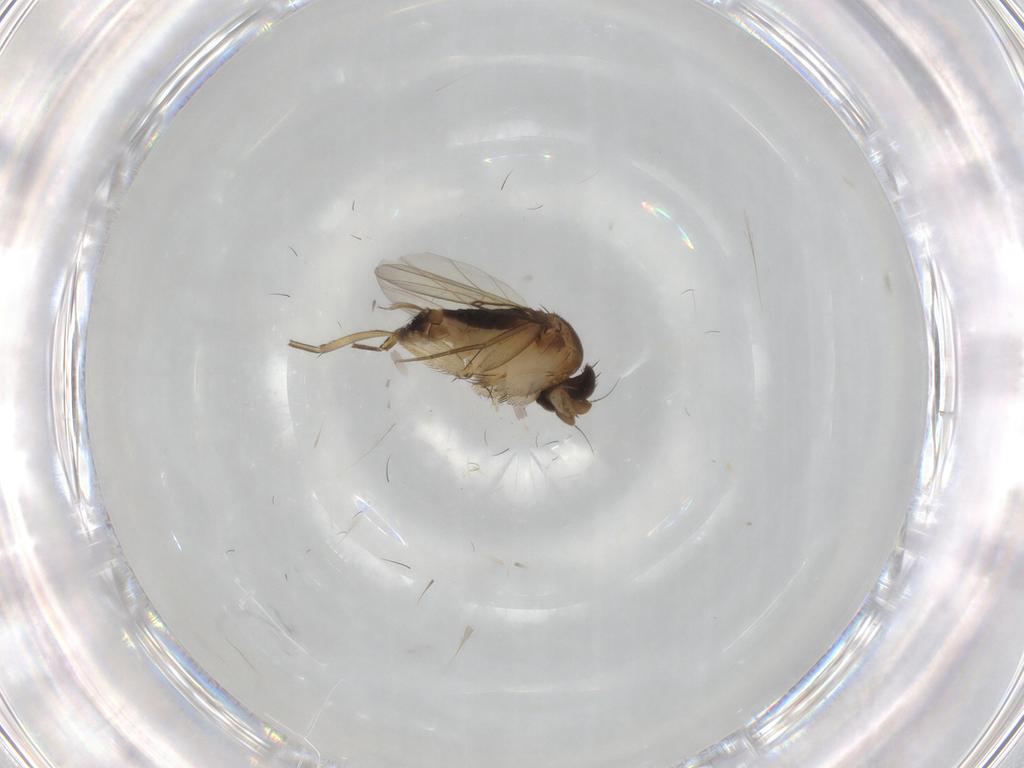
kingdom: Animalia
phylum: Arthropoda
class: Insecta
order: Diptera
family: Phoridae
